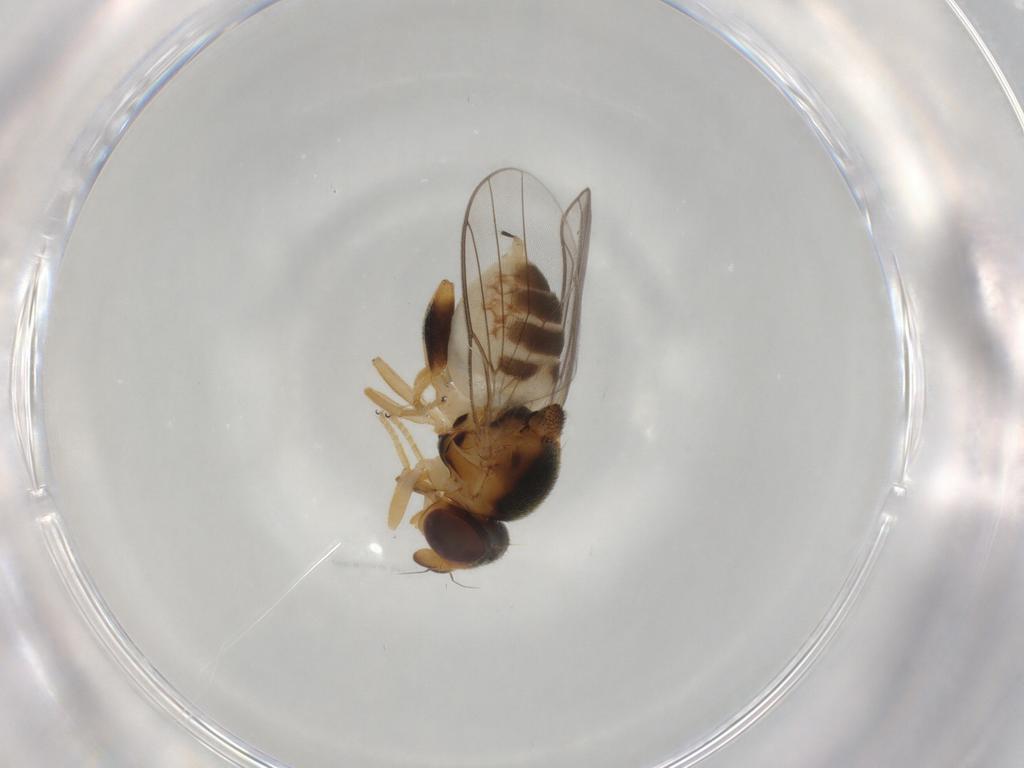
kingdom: Animalia
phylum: Arthropoda
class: Insecta
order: Diptera
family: Chloropidae
